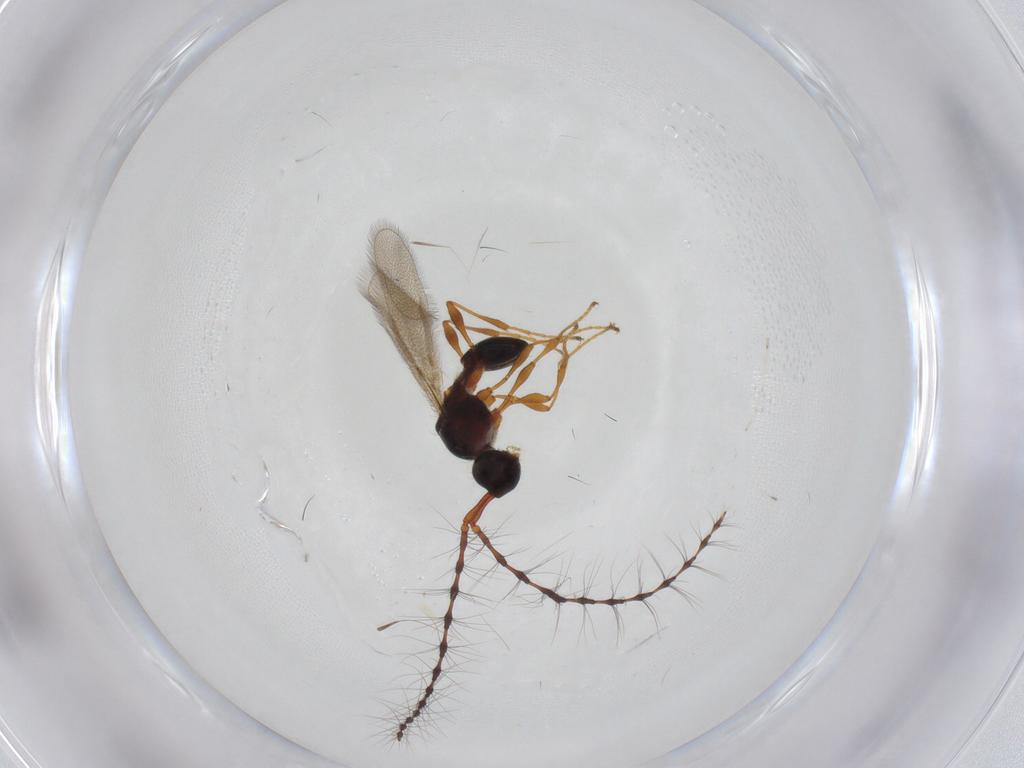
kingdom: Animalia
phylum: Arthropoda
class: Insecta
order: Hymenoptera
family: Diapriidae
